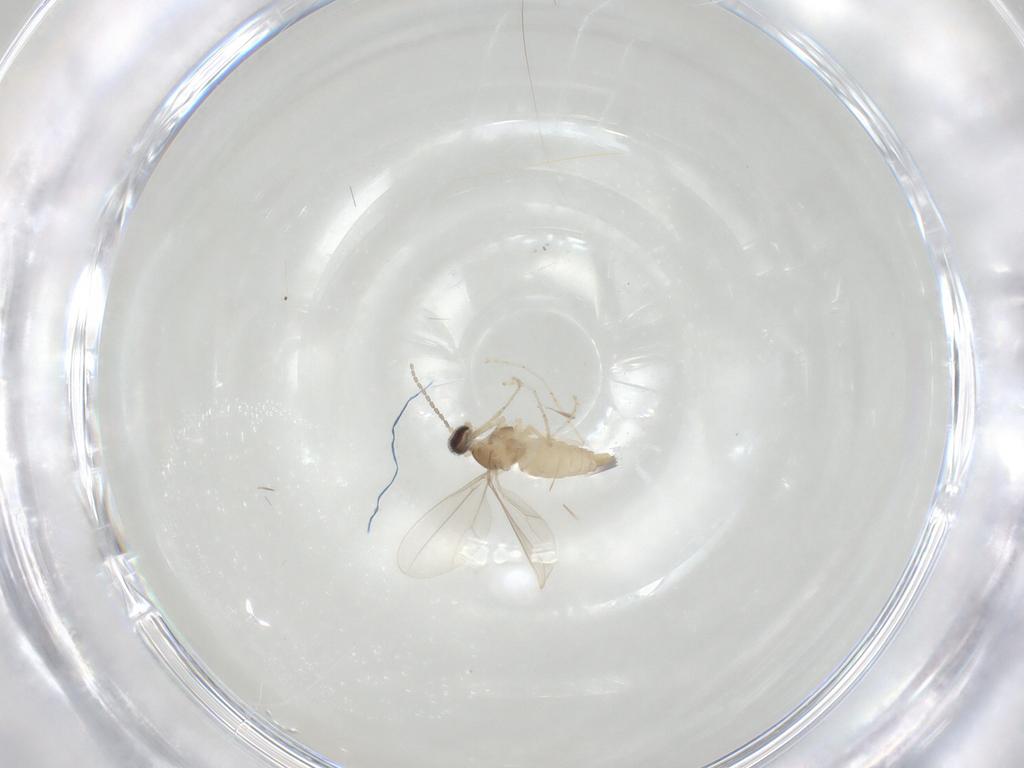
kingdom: Animalia
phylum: Arthropoda
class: Insecta
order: Diptera
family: Cecidomyiidae
